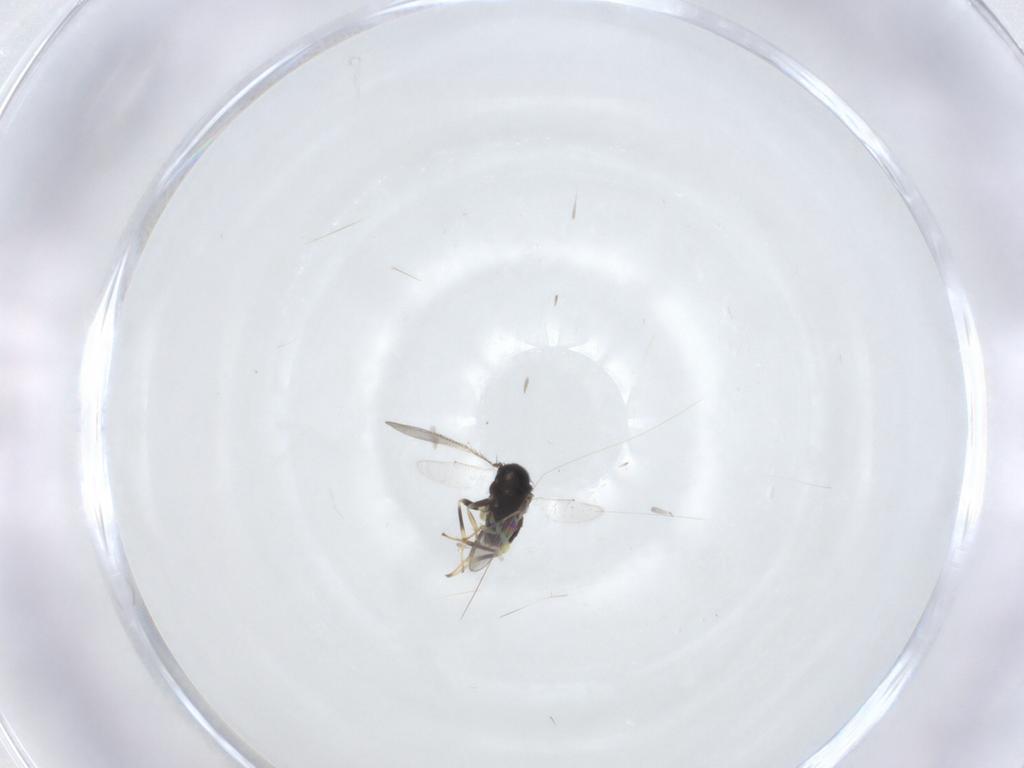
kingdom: Animalia
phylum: Arthropoda
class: Insecta
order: Hymenoptera
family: Aphelinidae
